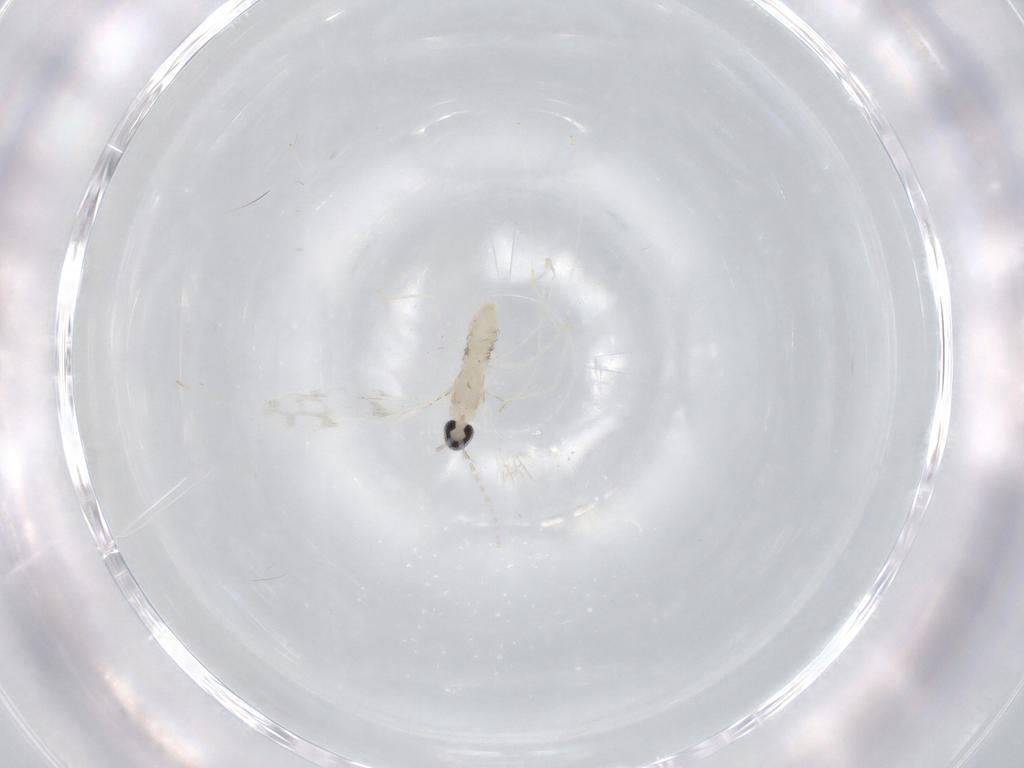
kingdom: Animalia
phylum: Arthropoda
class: Insecta
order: Diptera
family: Cecidomyiidae
